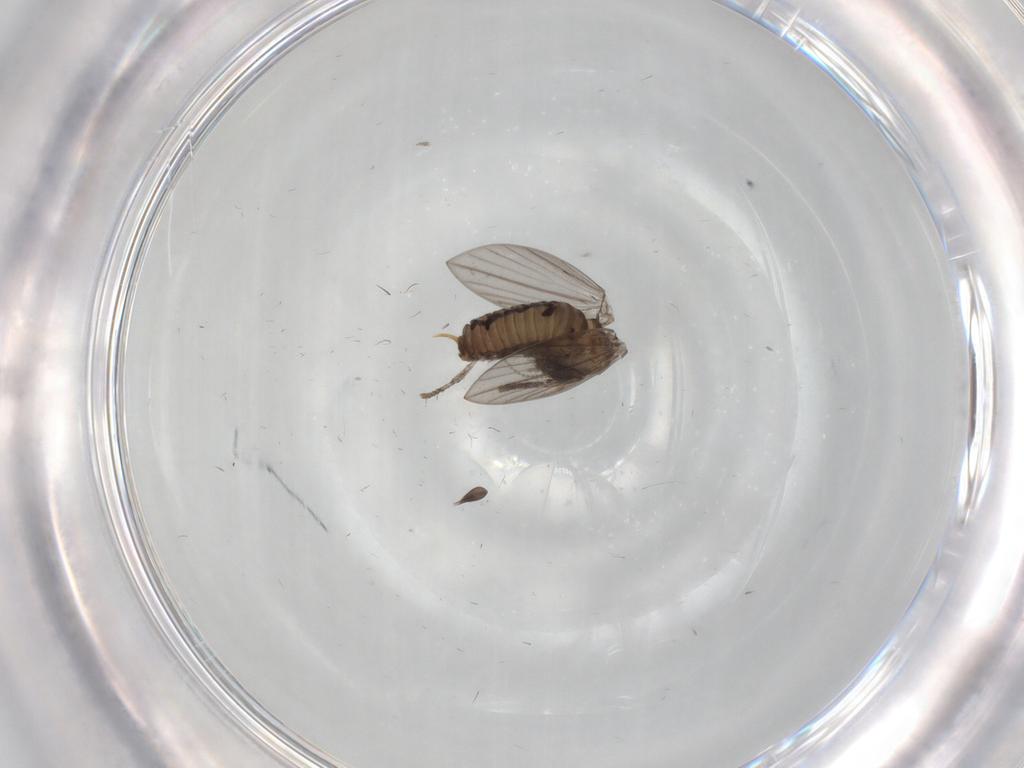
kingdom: Animalia
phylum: Arthropoda
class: Insecta
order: Diptera
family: Psychodidae
